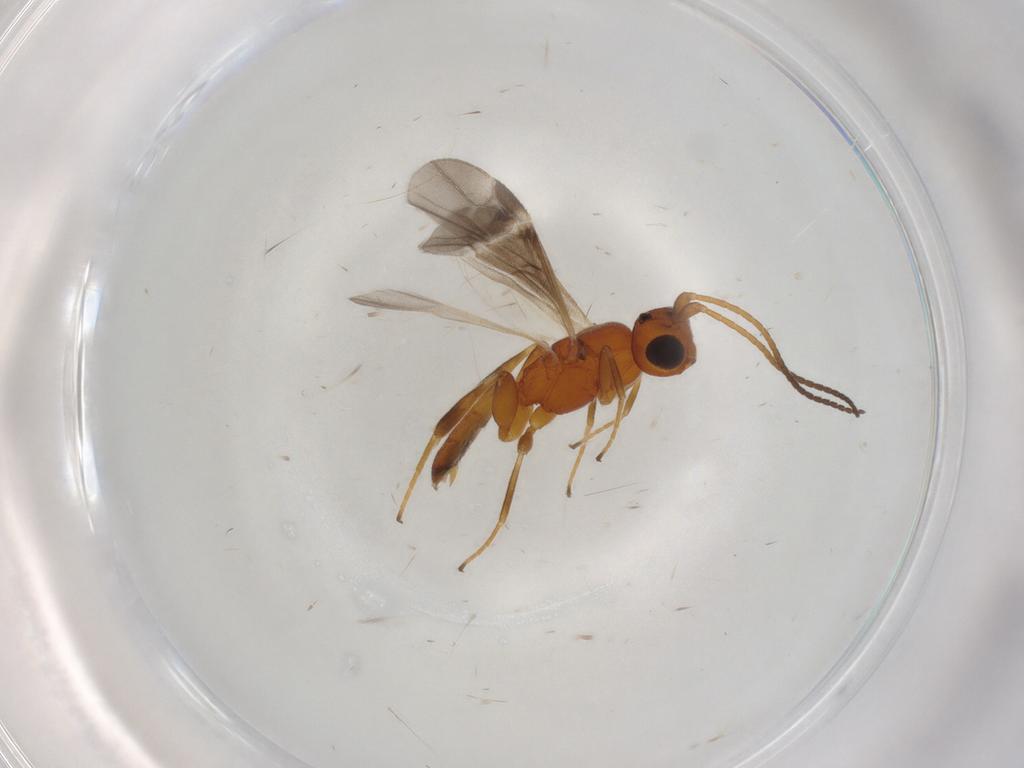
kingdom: Animalia
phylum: Arthropoda
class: Insecta
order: Hymenoptera
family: Braconidae
